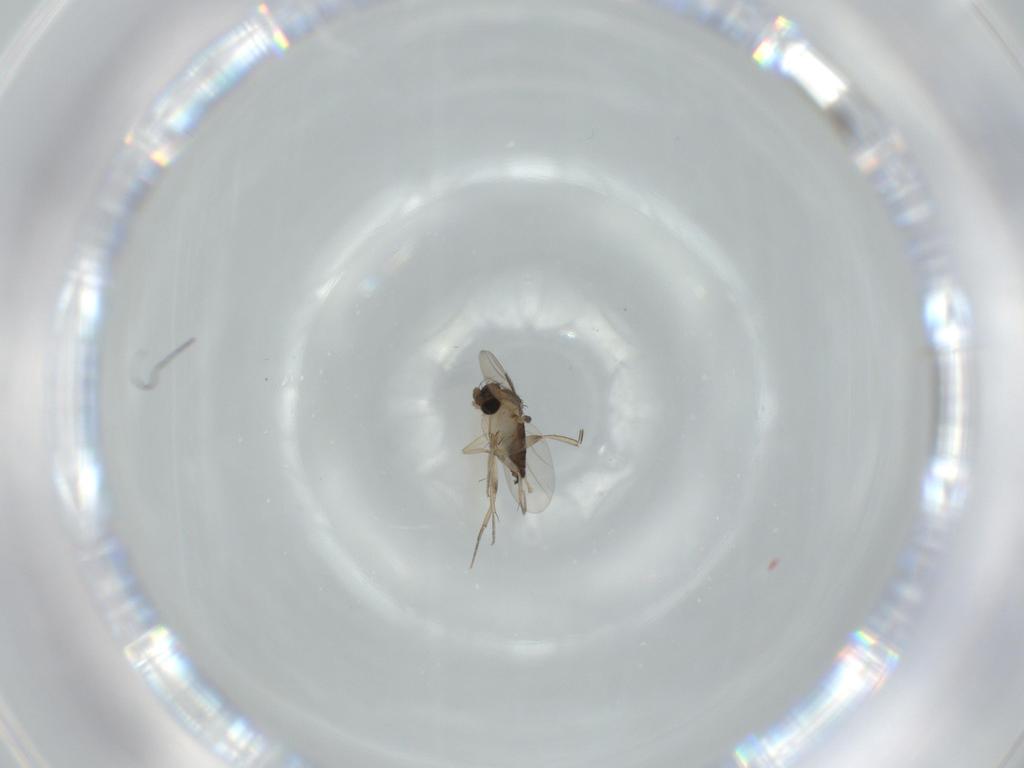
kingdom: Animalia
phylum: Arthropoda
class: Insecta
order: Diptera
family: Phoridae
